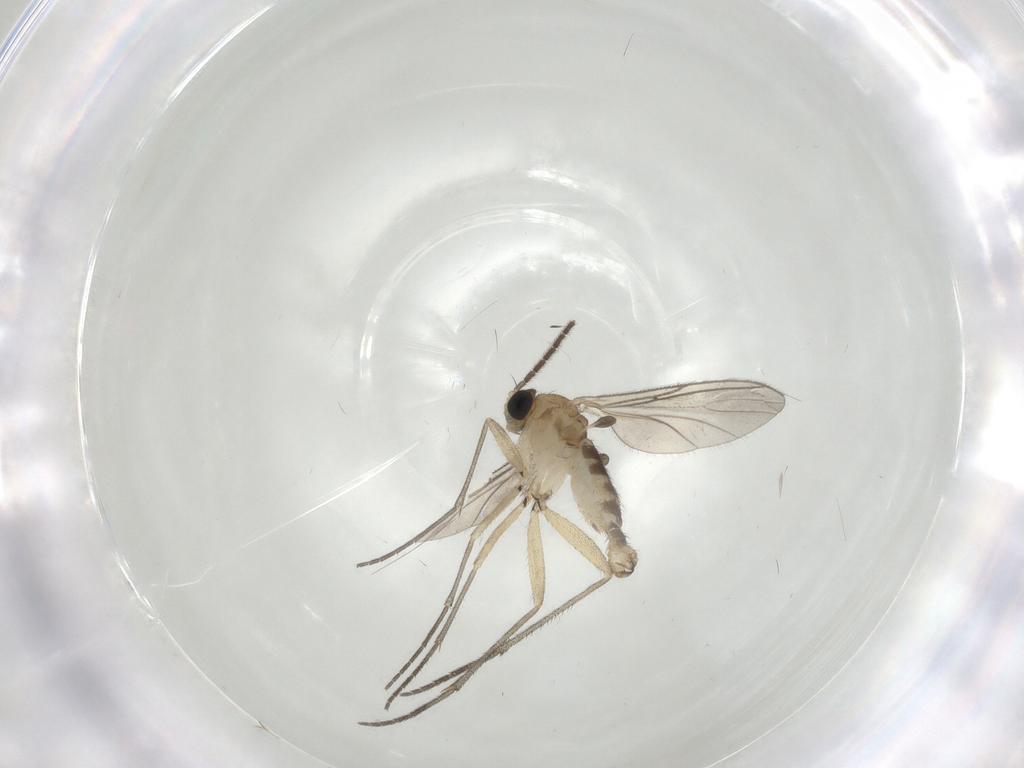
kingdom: Animalia
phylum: Arthropoda
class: Insecta
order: Diptera
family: Sciaridae
